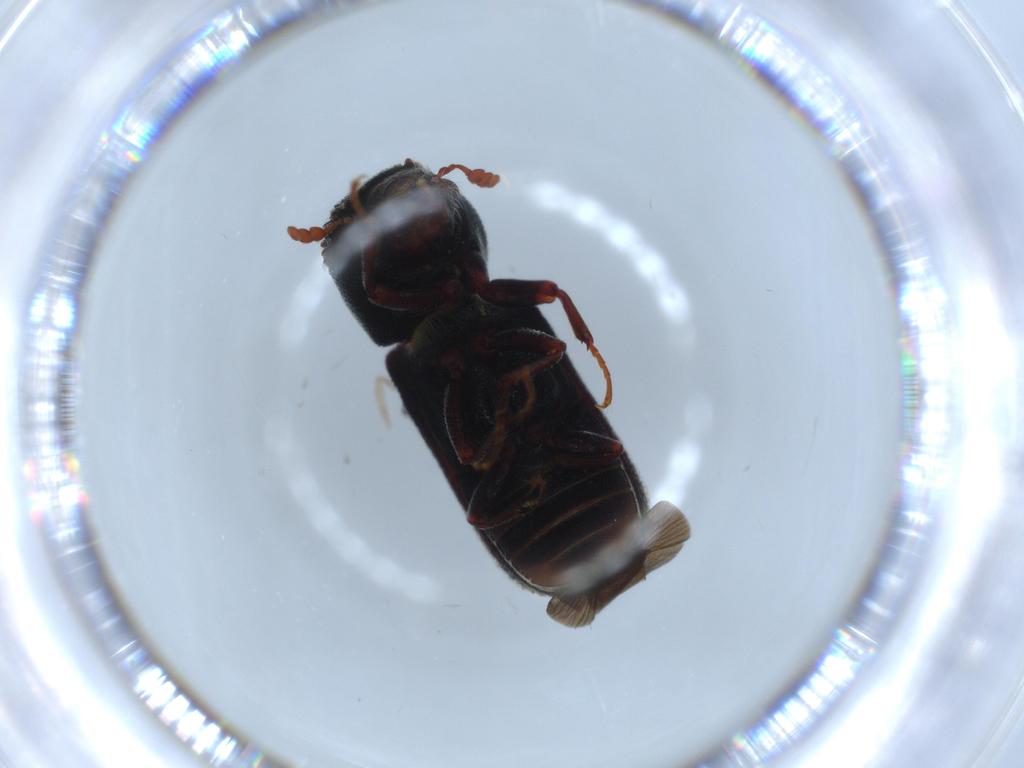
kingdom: Animalia
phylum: Arthropoda
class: Insecta
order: Coleoptera
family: Bostrichidae
